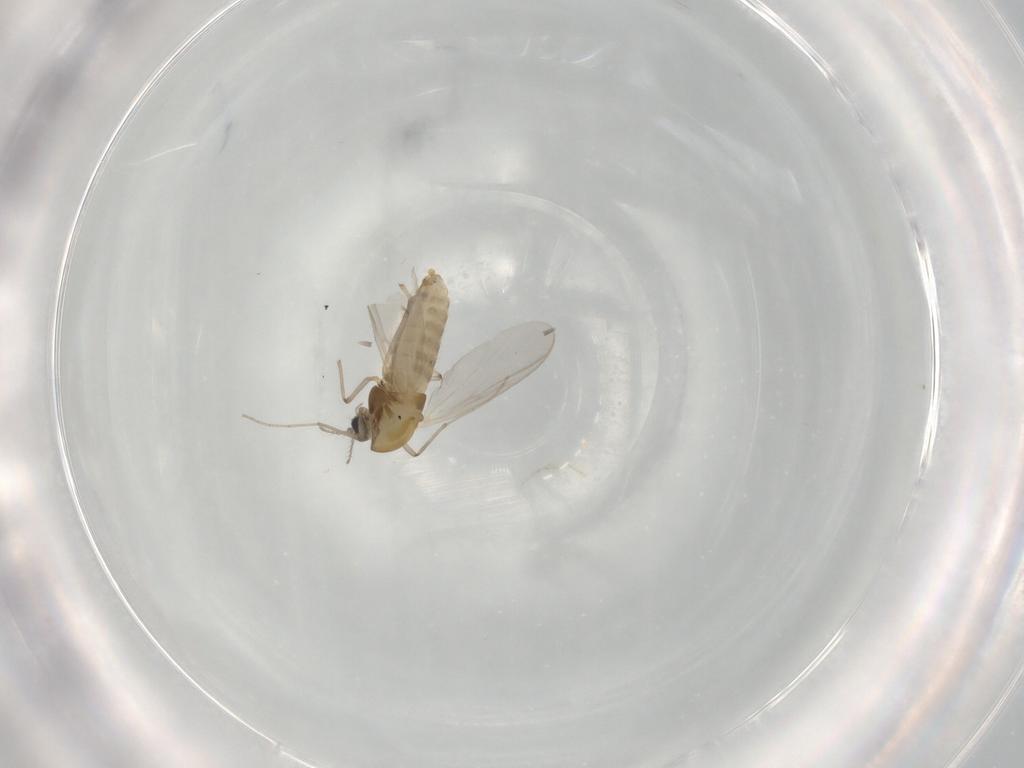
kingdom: Animalia
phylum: Arthropoda
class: Insecta
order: Diptera
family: Chironomidae
